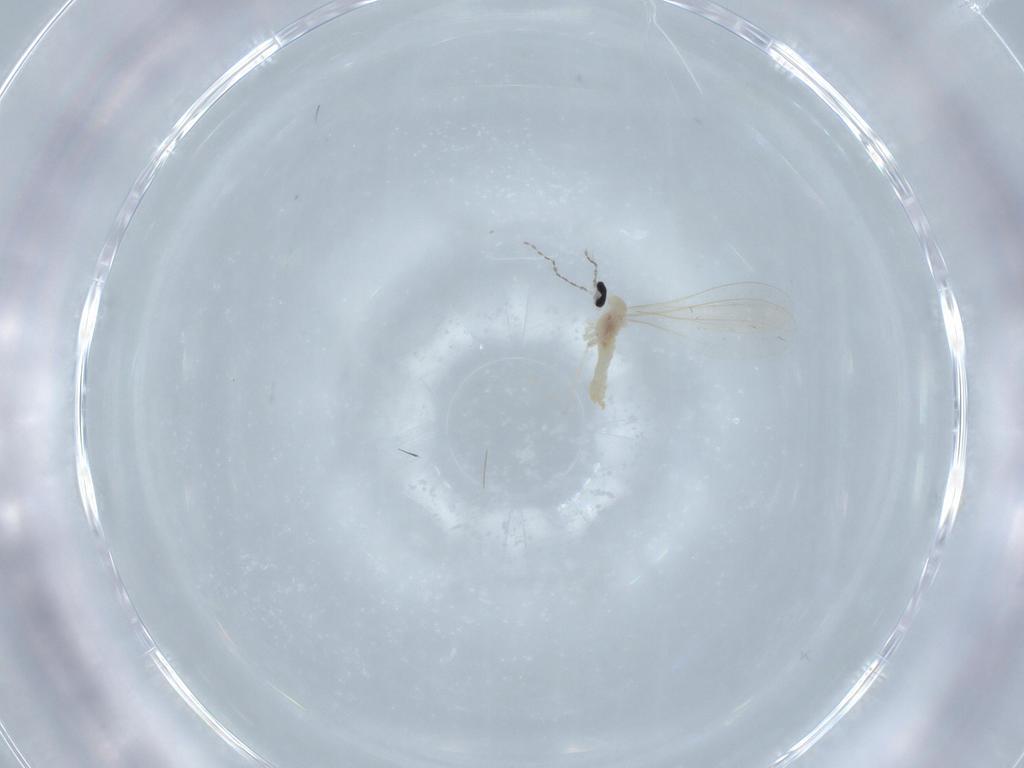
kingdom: Animalia
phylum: Arthropoda
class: Insecta
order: Diptera
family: Cecidomyiidae
